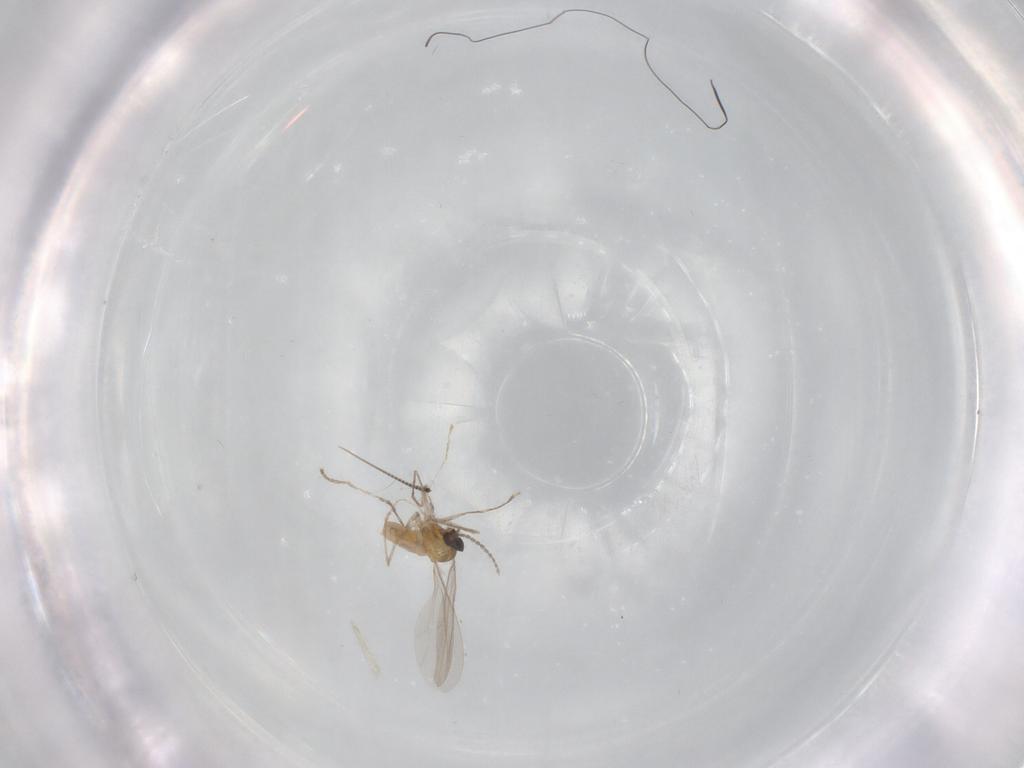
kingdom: Animalia
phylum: Arthropoda
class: Insecta
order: Diptera
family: Cecidomyiidae
